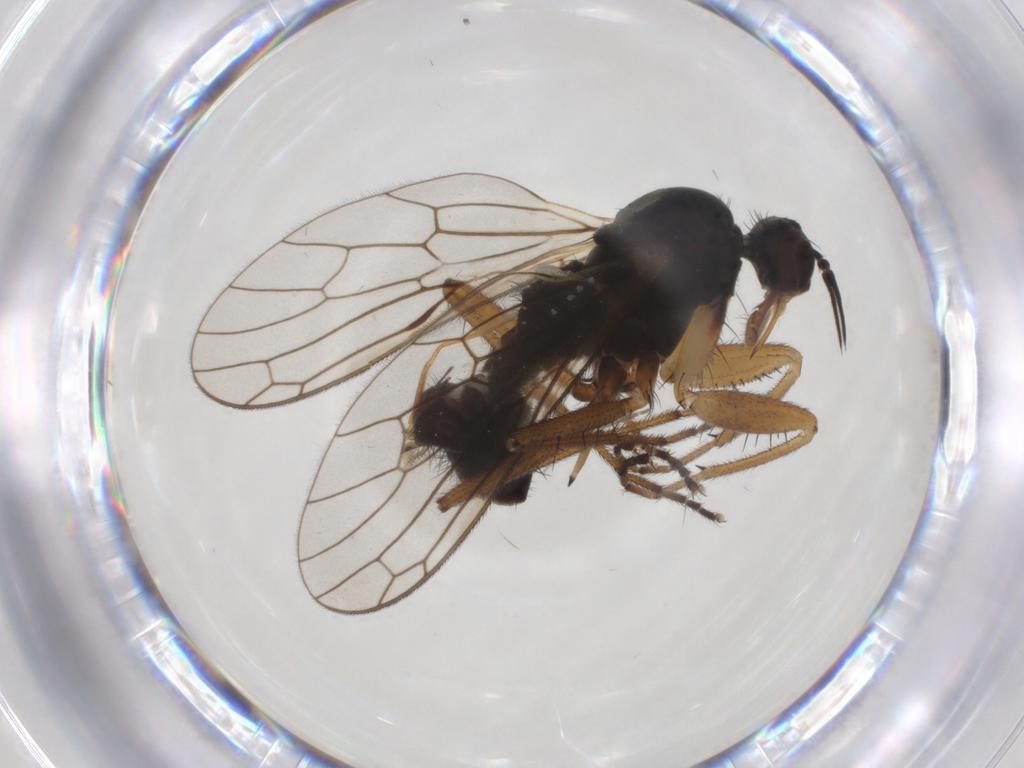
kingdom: Animalia
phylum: Arthropoda
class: Insecta
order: Diptera
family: Empididae
